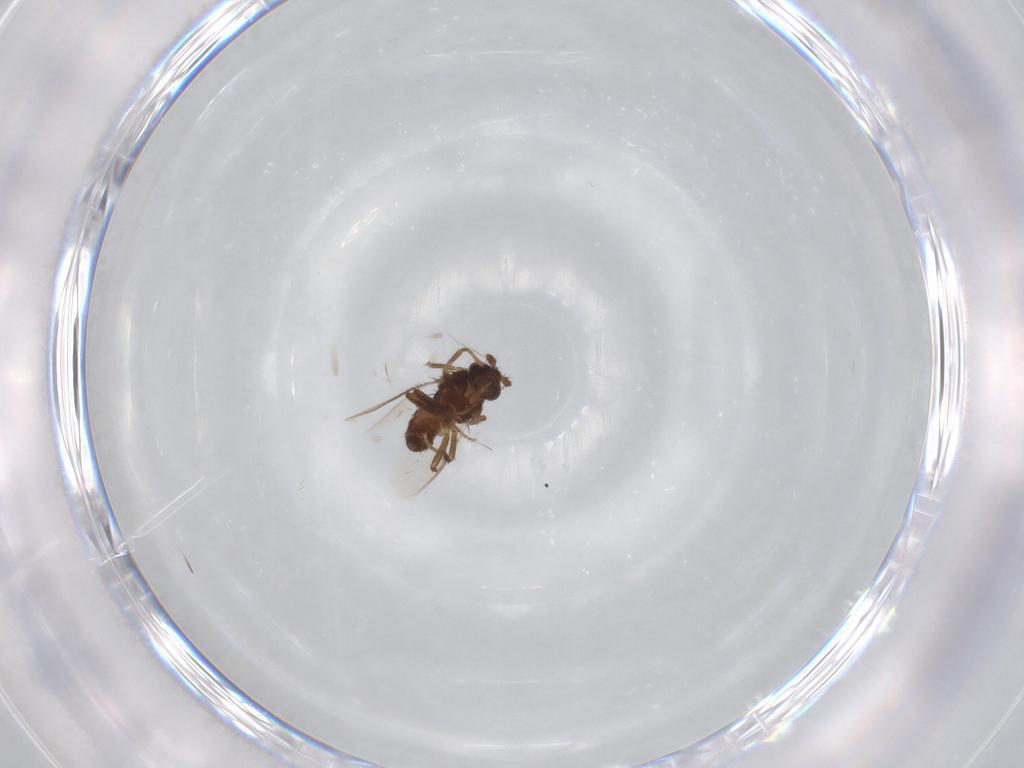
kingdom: Animalia
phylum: Arthropoda
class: Insecta
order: Diptera
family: Sphaeroceridae
